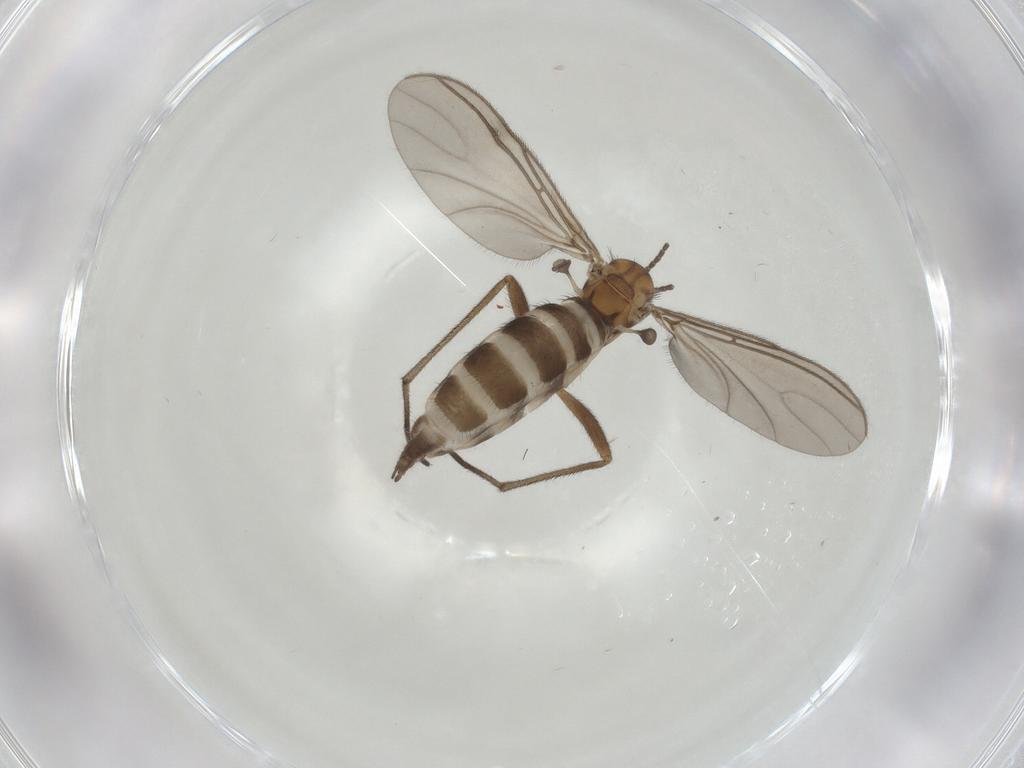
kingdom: Animalia
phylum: Arthropoda
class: Insecta
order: Diptera
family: Sciaridae
